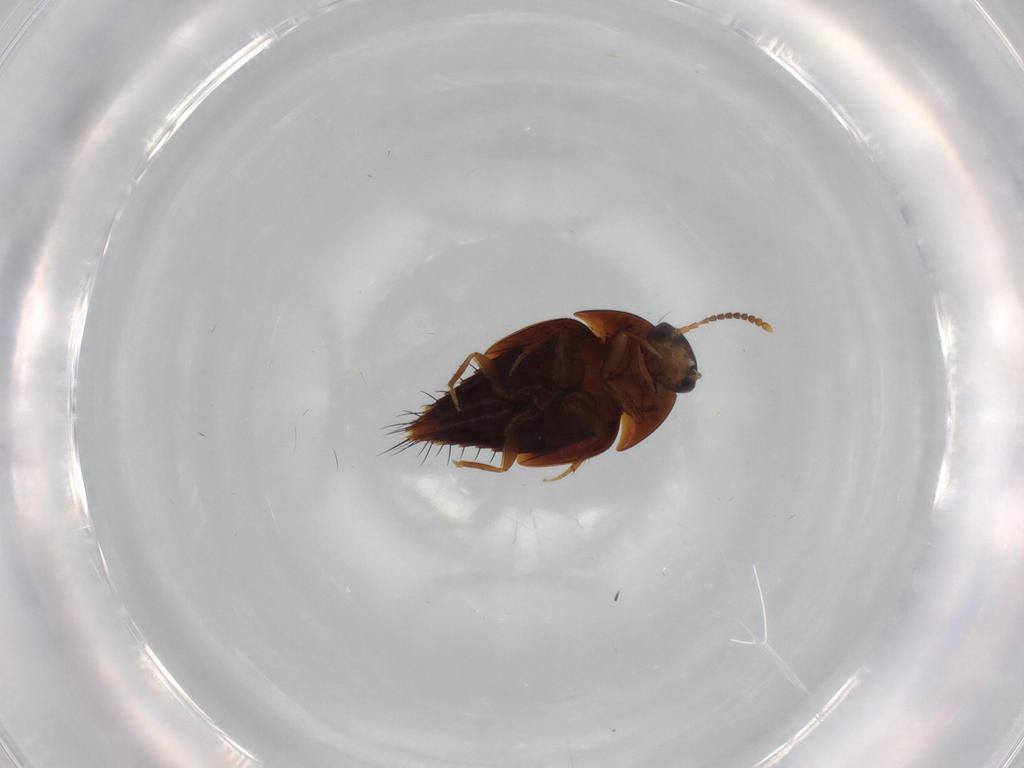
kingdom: Animalia
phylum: Arthropoda
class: Insecta
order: Coleoptera
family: Staphylinidae
